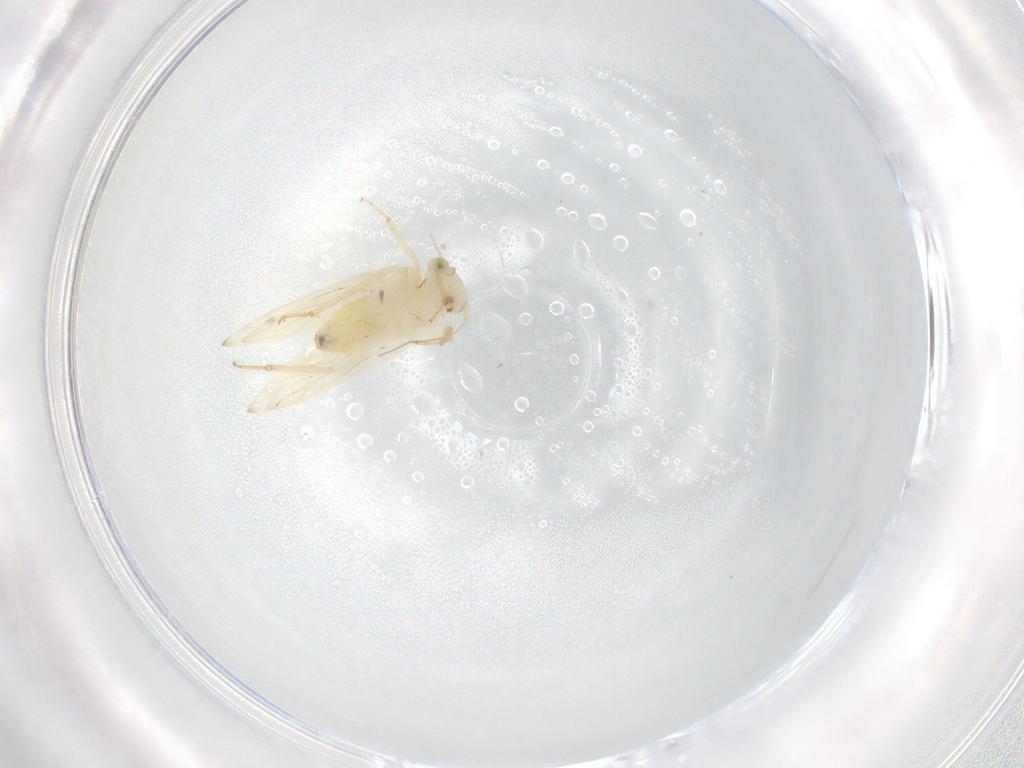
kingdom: Animalia
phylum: Arthropoda
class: Insecta
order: Psocodea
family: Lepidopsocidae
